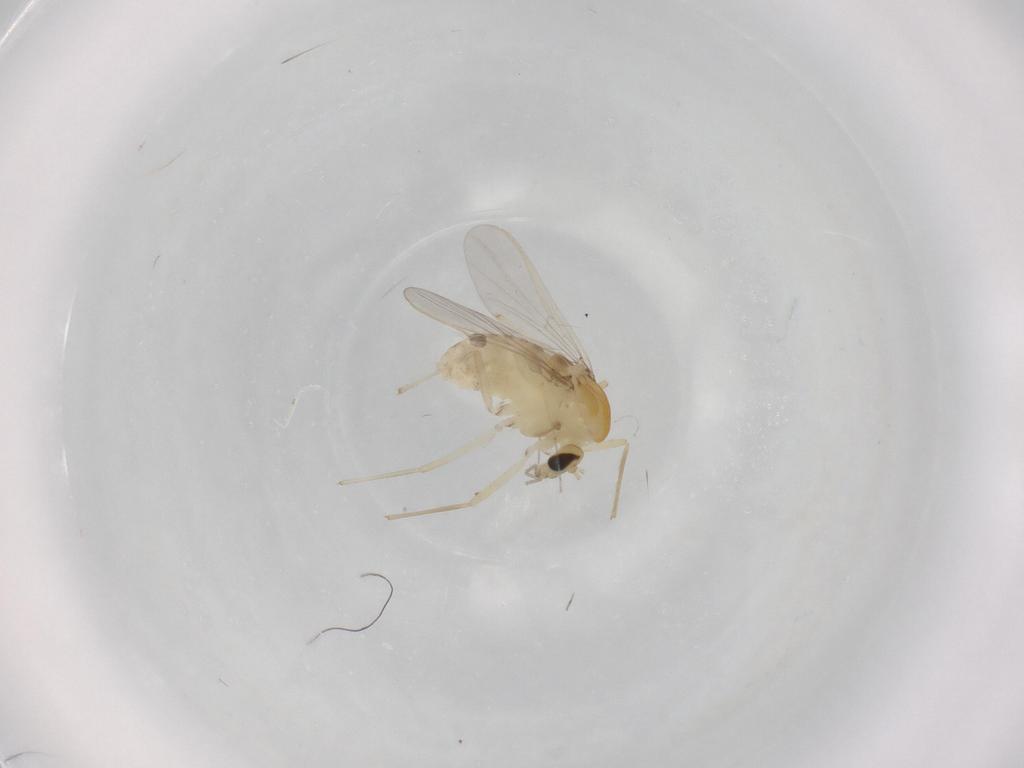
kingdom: Animalia
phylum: Arthropoda
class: Insecta
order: Diptera
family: Chironomidae
